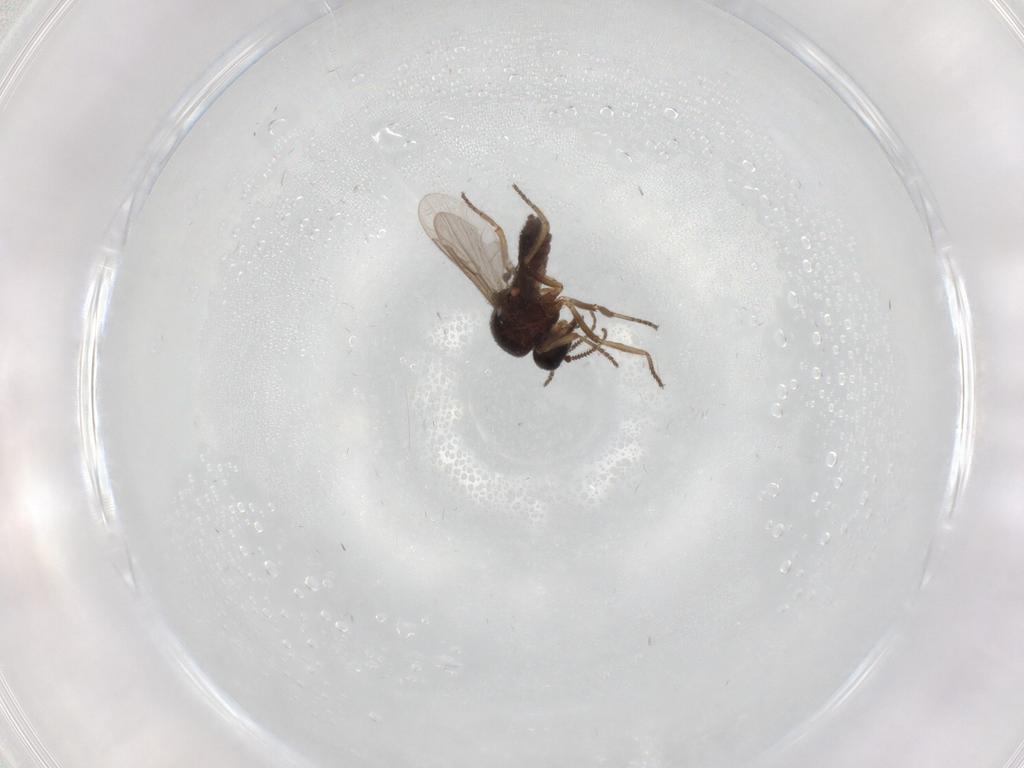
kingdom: Animalia
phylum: Arthropoda
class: Insecta
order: Diptera
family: Ceratopogonidae
